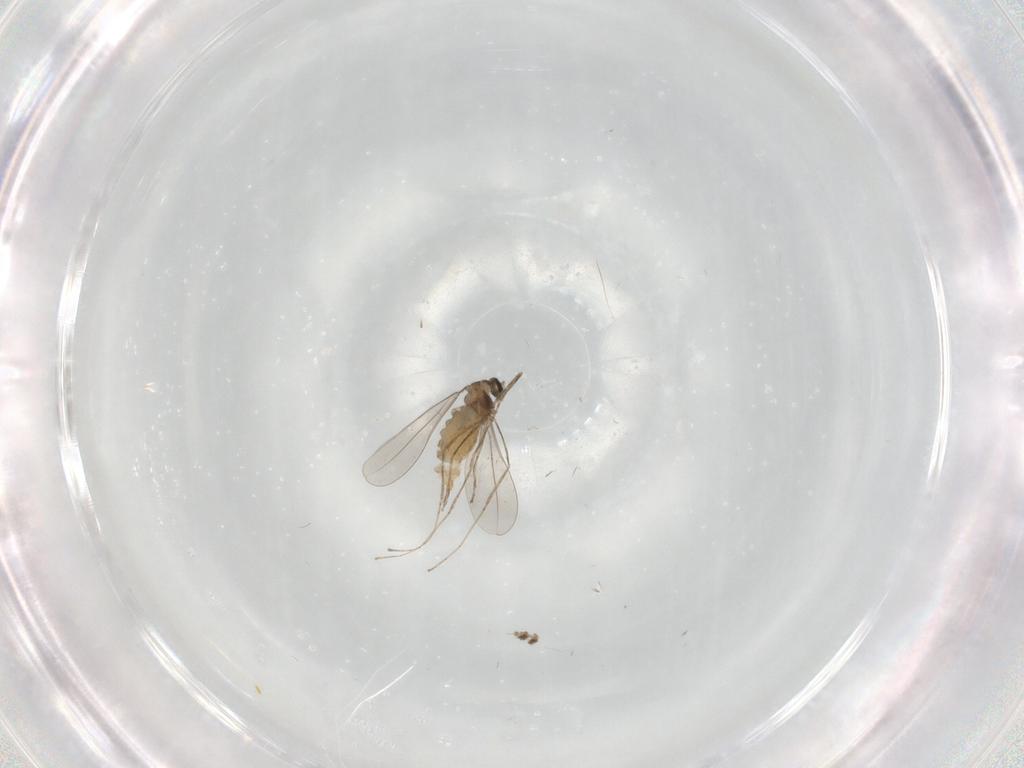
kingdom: Animalia
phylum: Arthropoda
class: Insecta
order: Diptera
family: Cecidomyiidae
